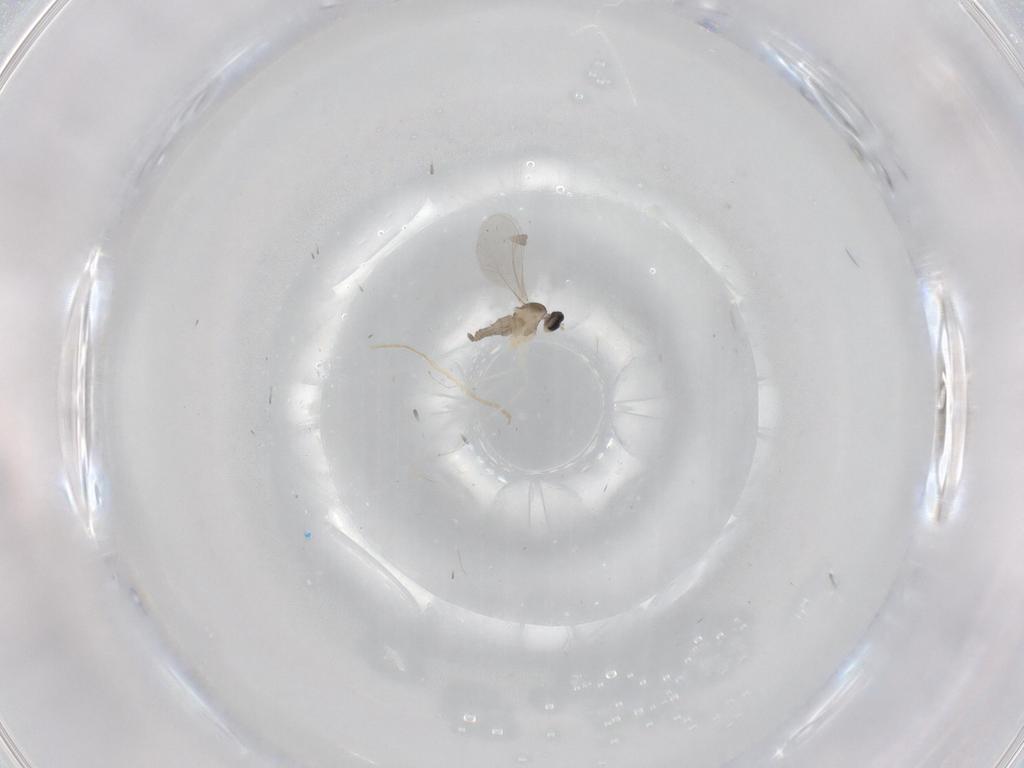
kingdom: Animalia
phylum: Arthropoda
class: Insecta
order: Diptera
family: Cecidomyiidae
